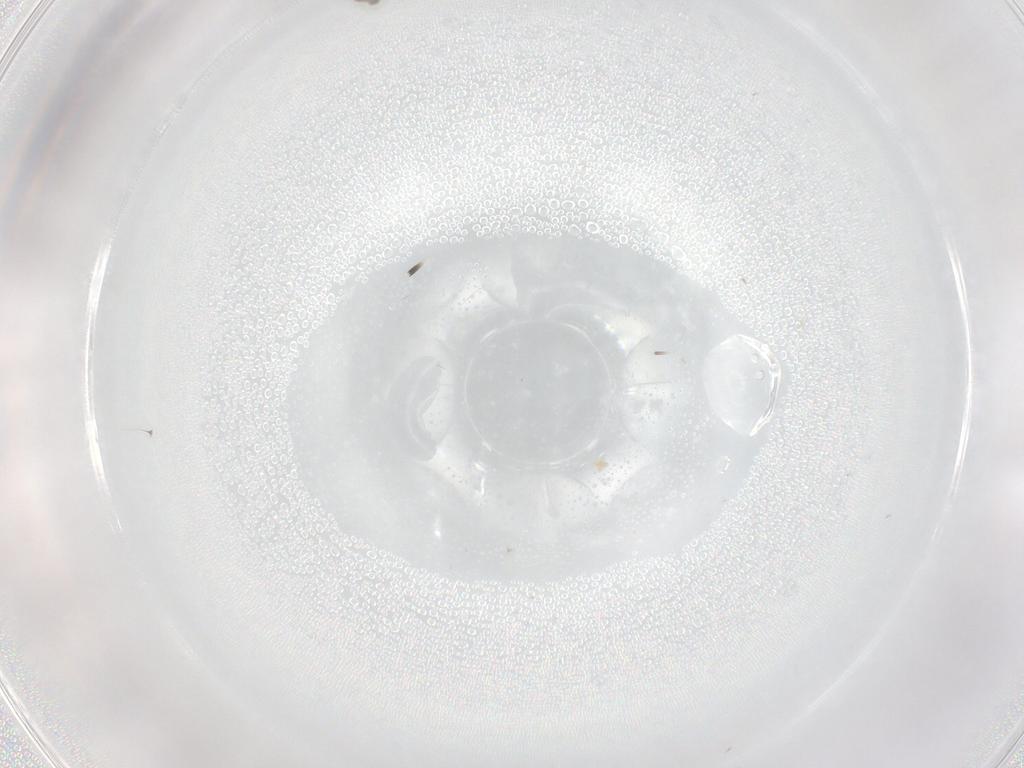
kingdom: Animalia
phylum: Arthropoda
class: Insecta
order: Diptera
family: Cecidomyiidae
